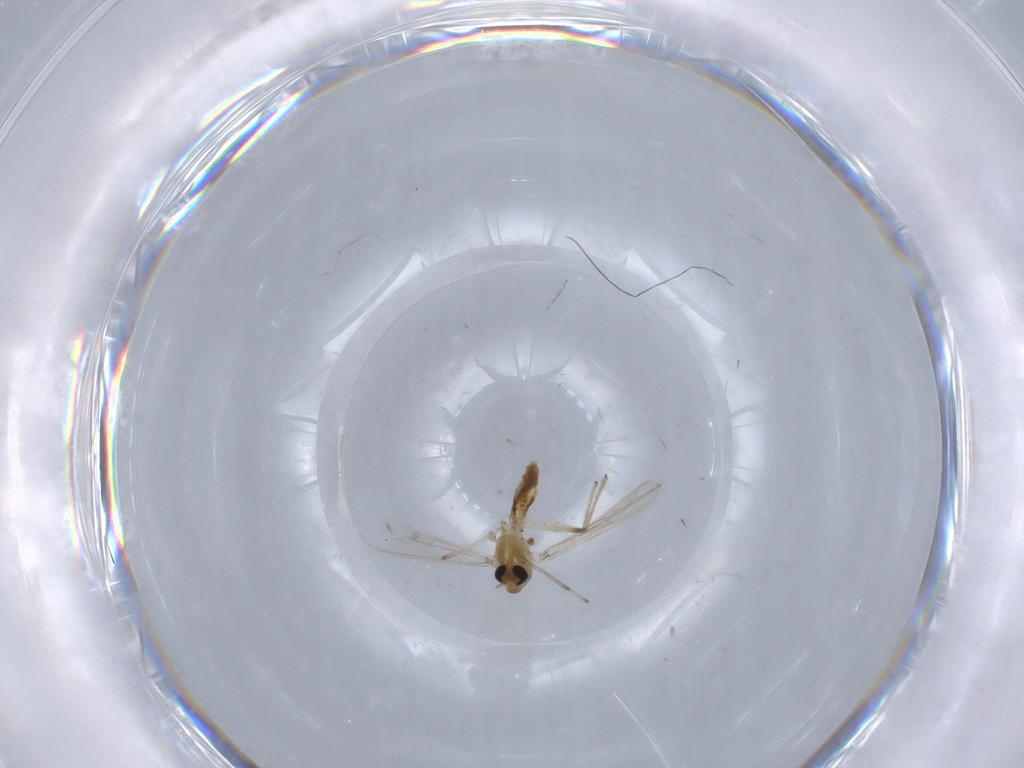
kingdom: Animalia
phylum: Arthropoda
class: Insecta
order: Diptera
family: Chironomidae
